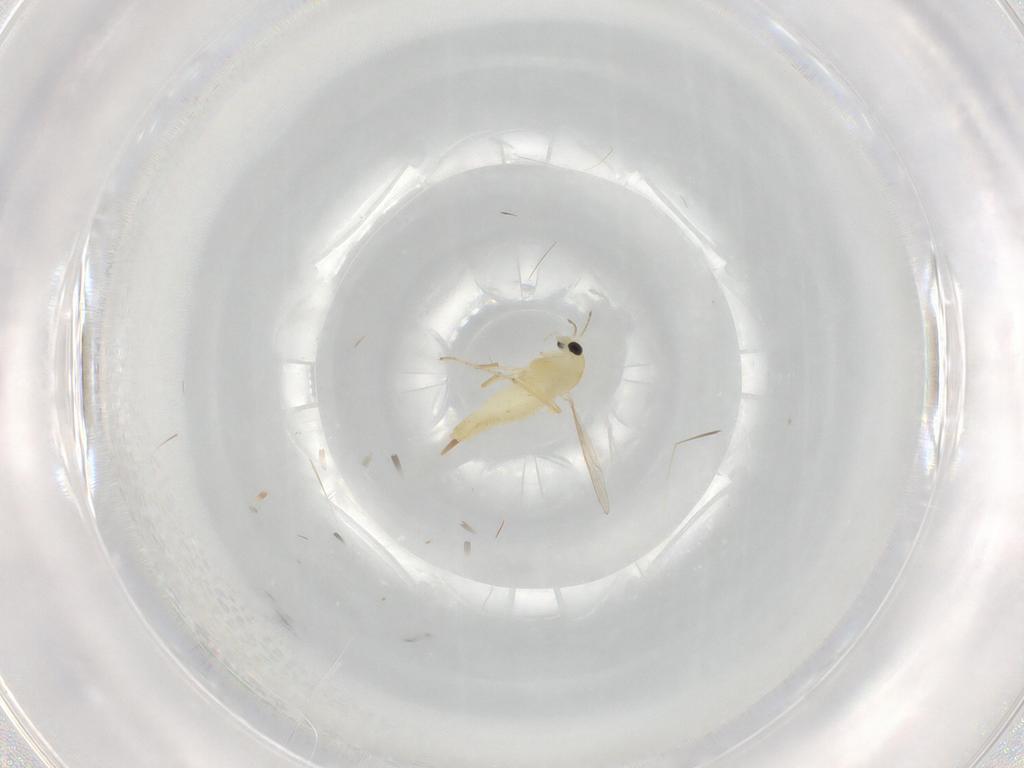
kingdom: Animalia
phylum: Arthropoda
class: Insecta
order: Diptera
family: Chironomidae
